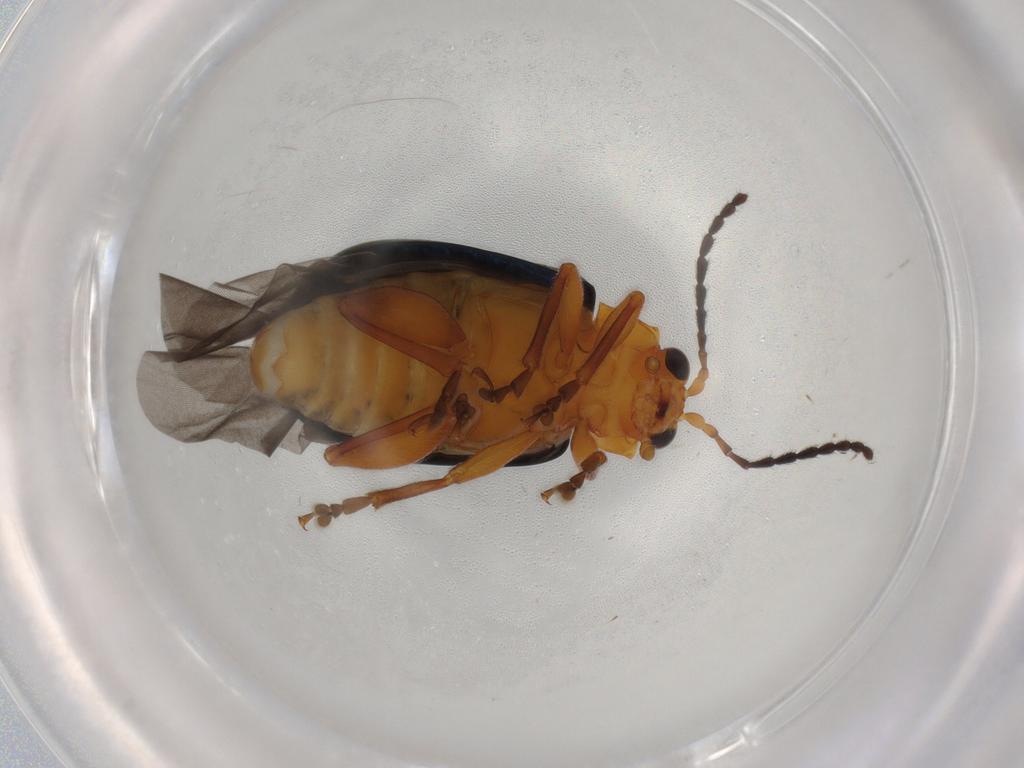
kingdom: Animalia
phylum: Arthropoda
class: Insecta
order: Coleoptera
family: Chrysomelidae
